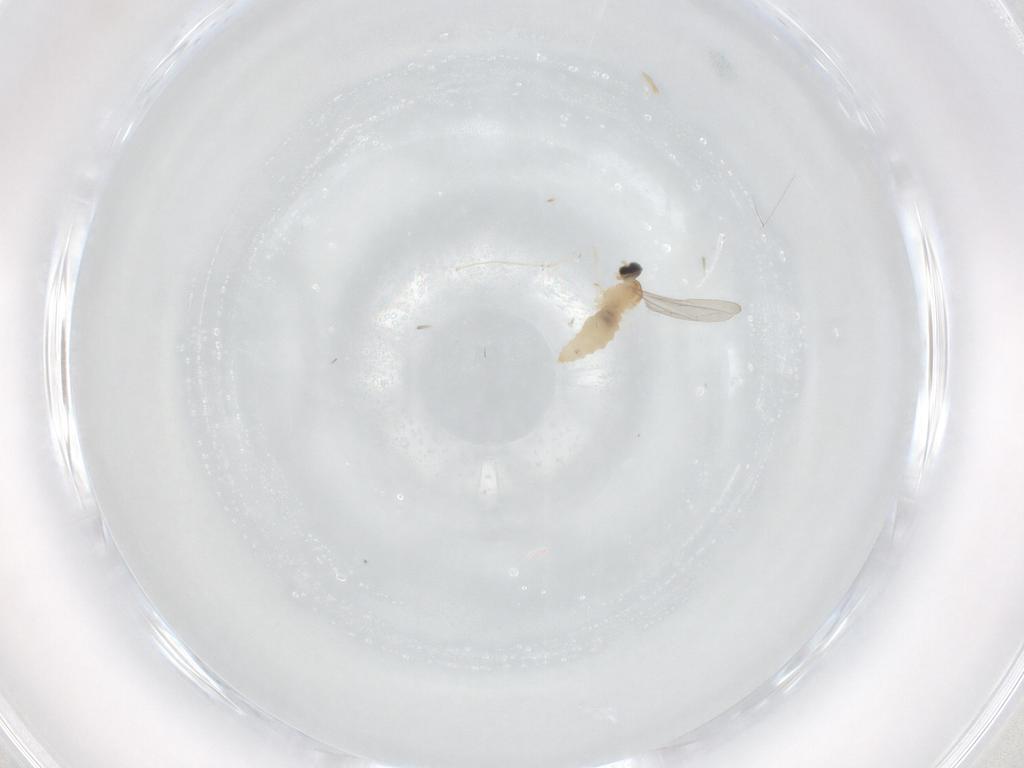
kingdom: Animalia
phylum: Arthropoda
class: Insecta
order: Diptera
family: Cecidomyiidae
